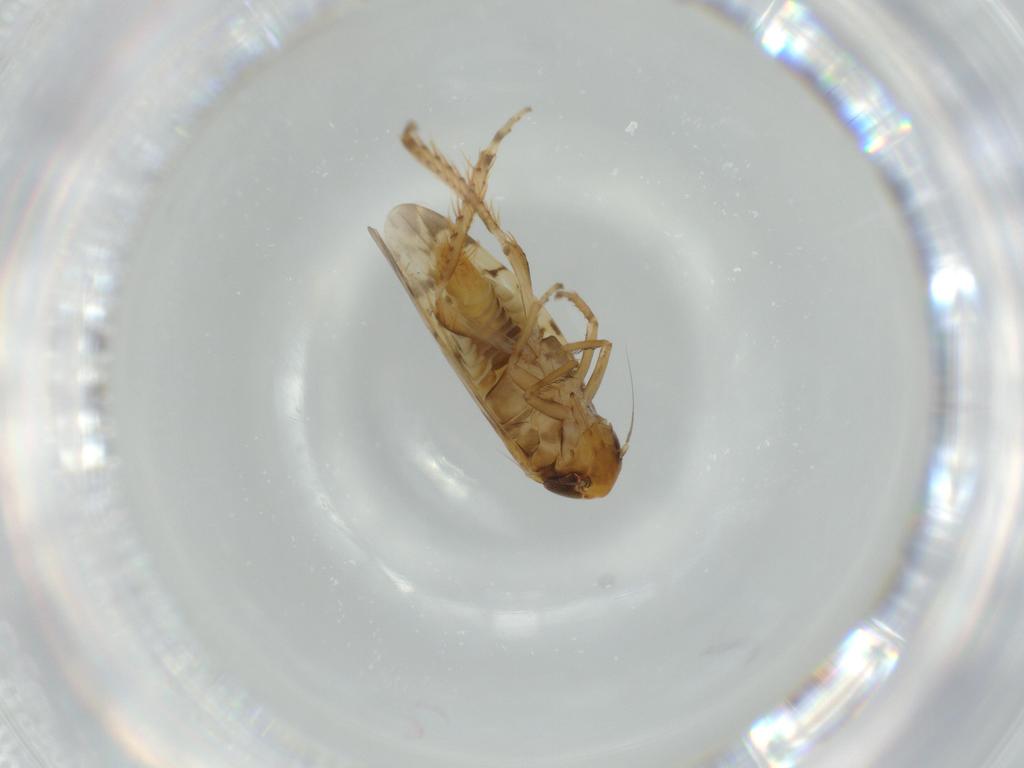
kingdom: Animalia
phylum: Arthropoda
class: Insecta
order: Hemiptera
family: Cicadellidae
